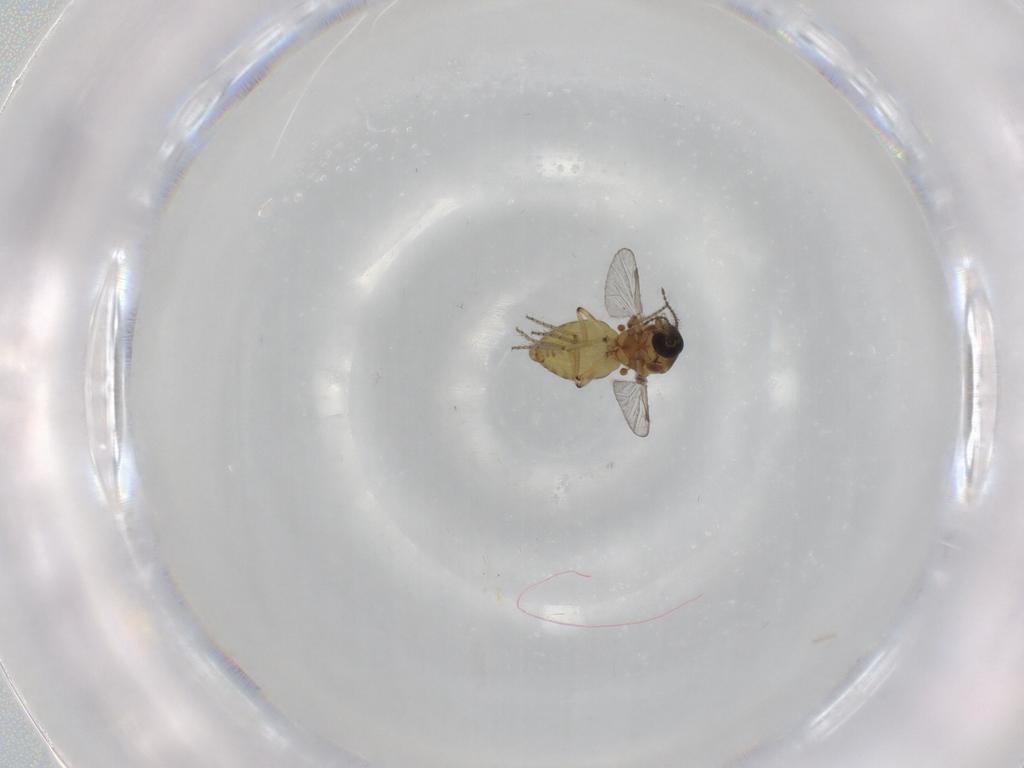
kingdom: Animalia
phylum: Arthropoda
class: Insecta
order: Diptera
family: Ceratopogonidae
